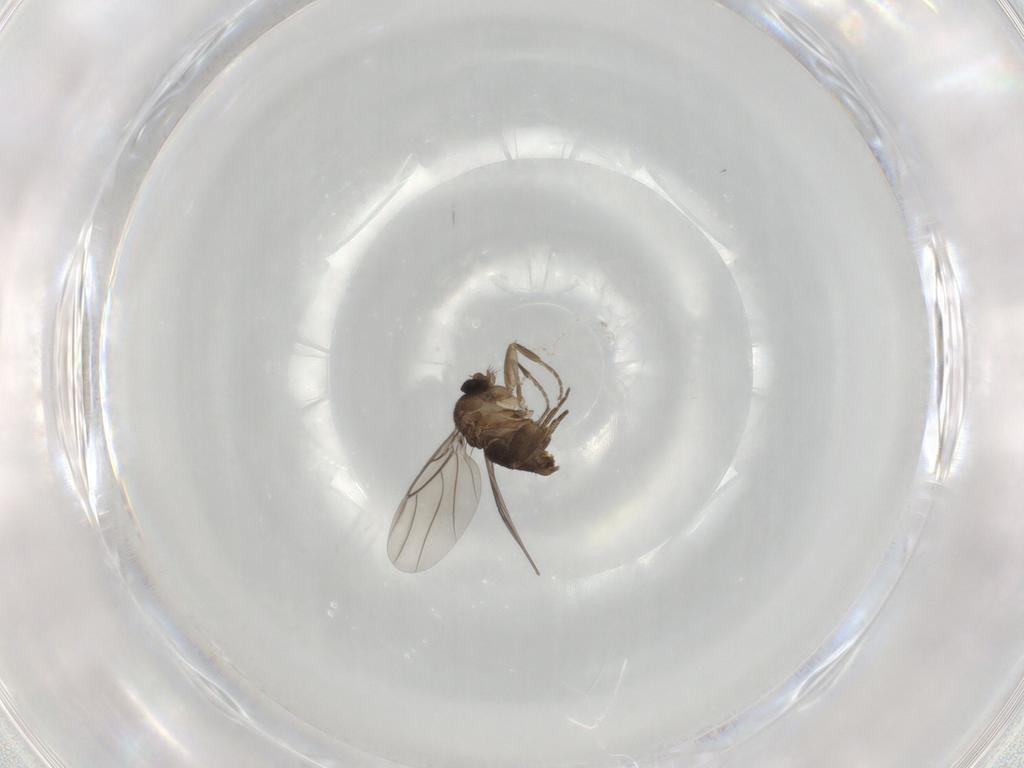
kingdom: Animalia
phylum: Arthropoda
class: Insecta
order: Diptera
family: Phoridae
